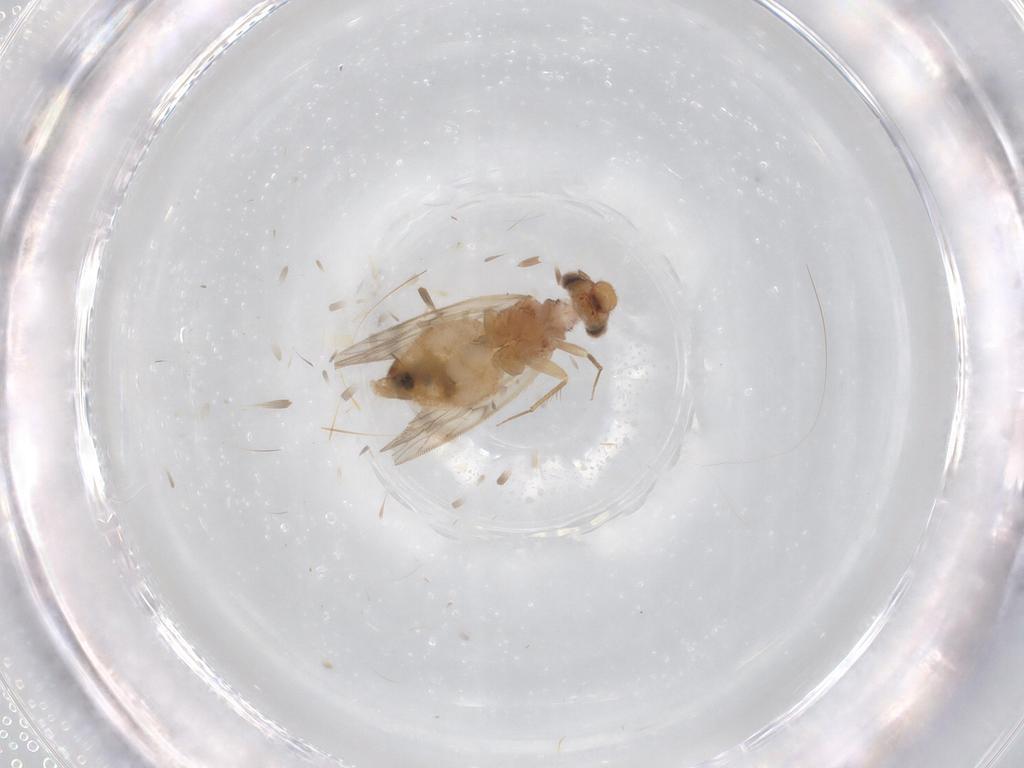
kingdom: Animalia
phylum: Arthropoda
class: Insecta
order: Psocodea
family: Lepidopsocidae
